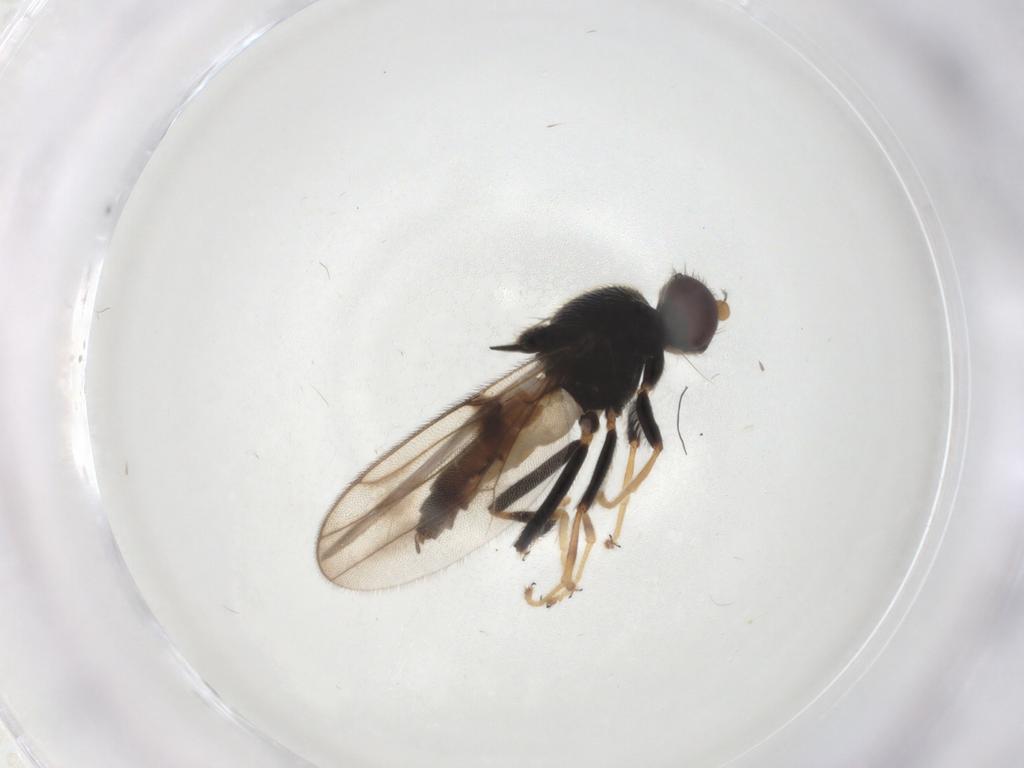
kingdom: Animalia
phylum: Arthropoda
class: Insecta
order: Diptera
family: Chloropidae
